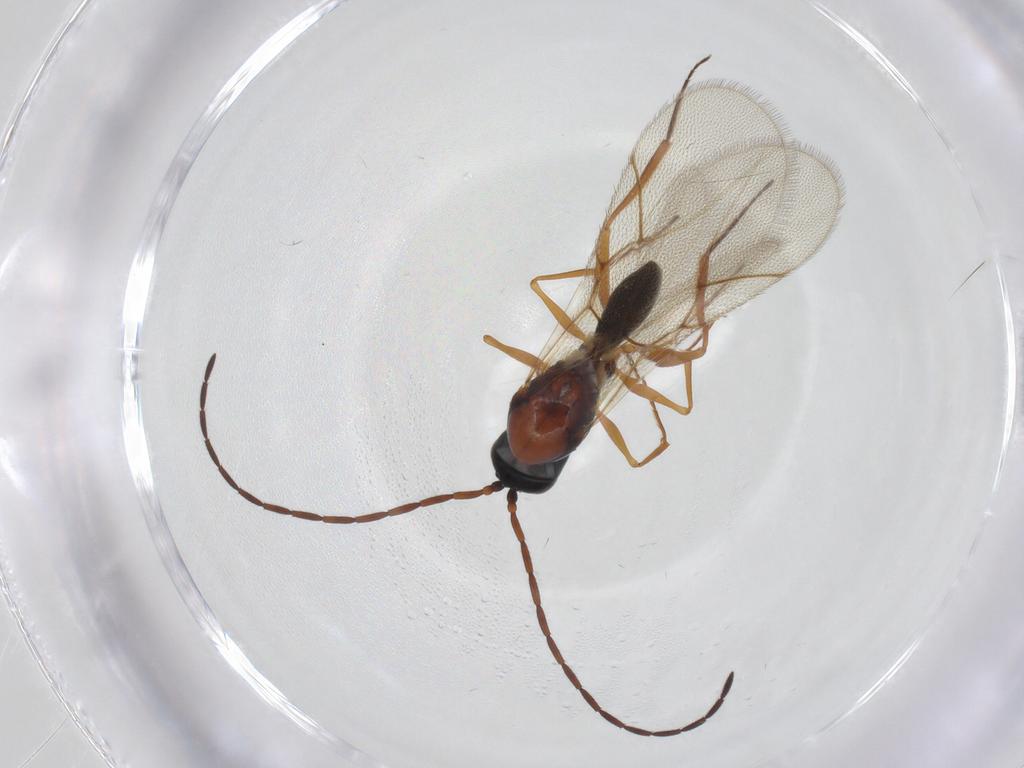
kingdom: Animalia
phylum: Arthropoda
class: Insecta
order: Hymenoptera
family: Figitidae
